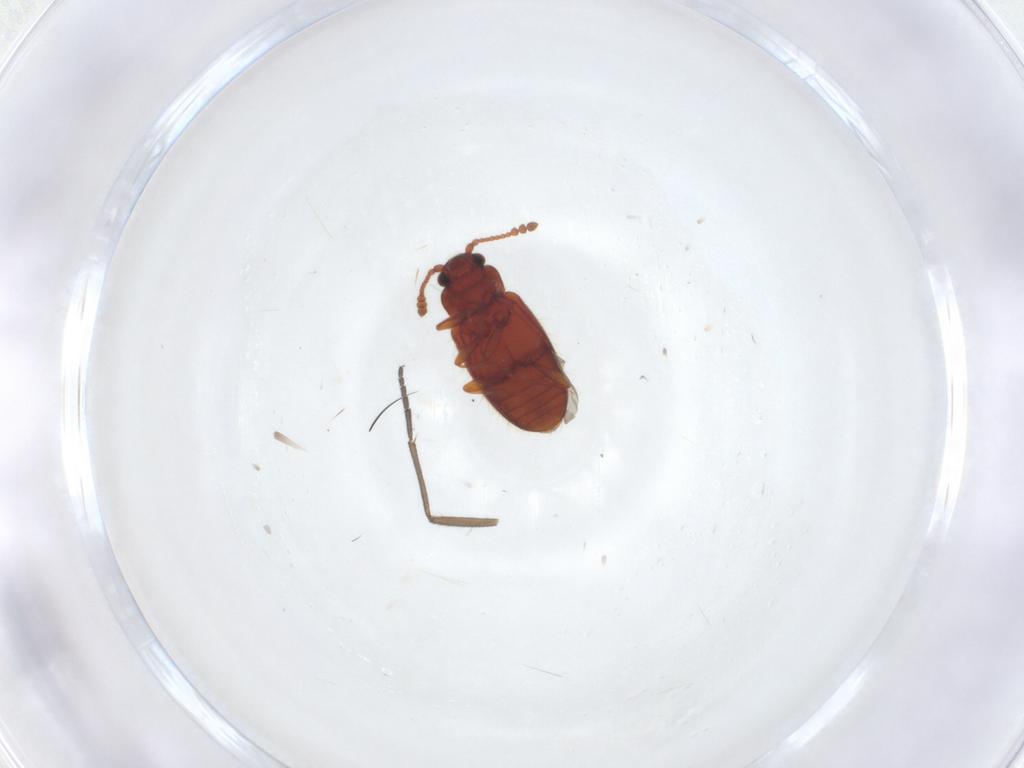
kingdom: Animalia
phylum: Arthropoda
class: Insecta
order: Coleoptera
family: Cryptophagidae
